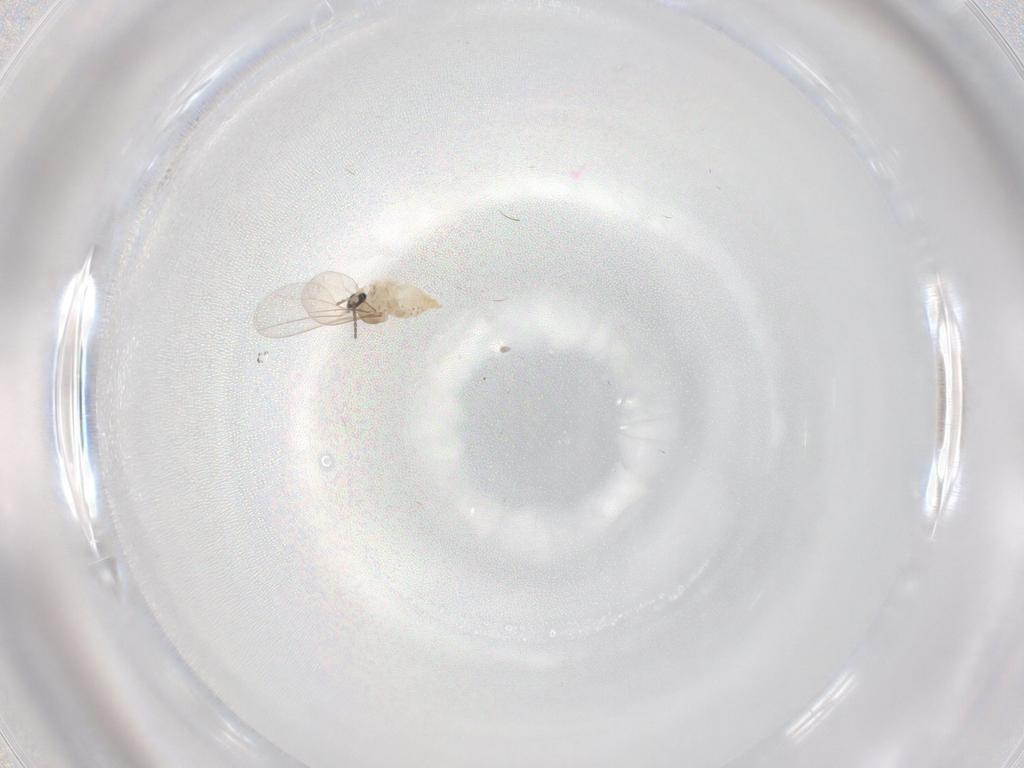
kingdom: Animalia
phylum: Arthropoda
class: Insecta
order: Diptera
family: Cecidomyiidae
